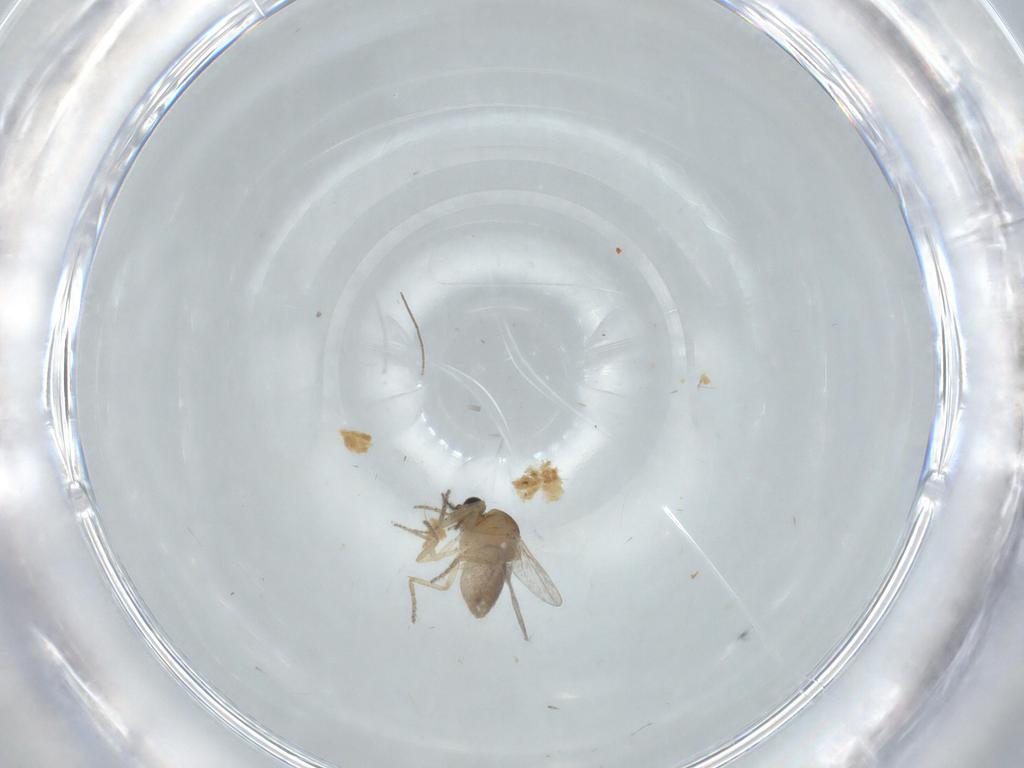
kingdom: Animalia
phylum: Arthropoda
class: Insecta
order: Diptera
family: Ceratopogonidae
